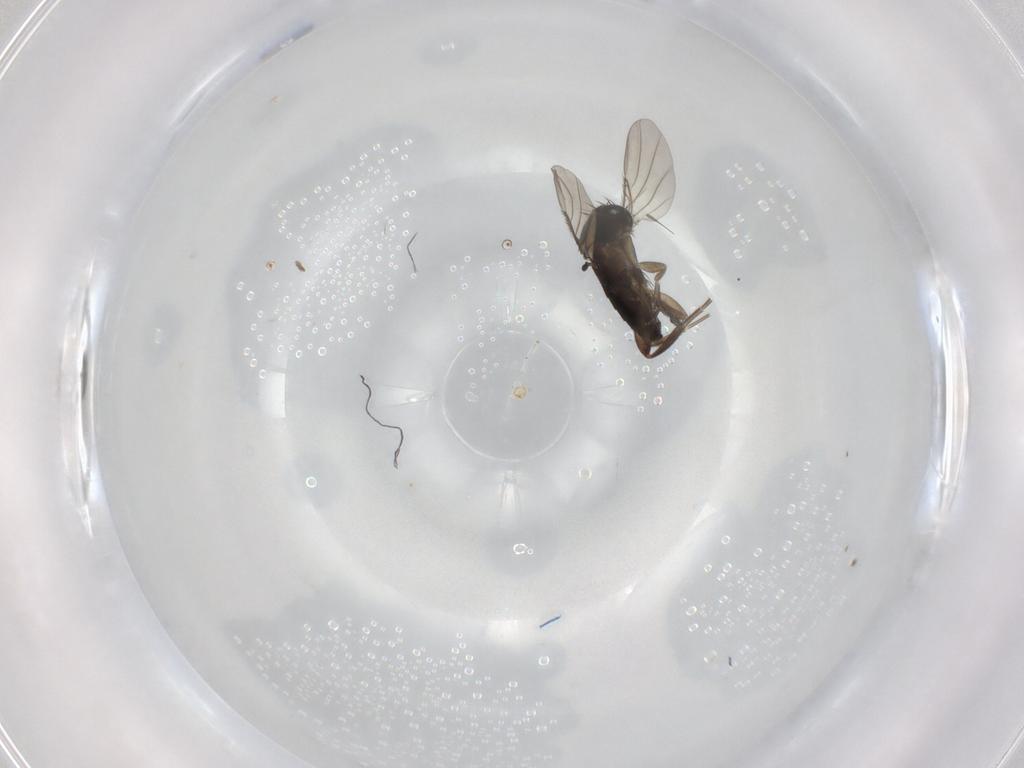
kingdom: Animalia
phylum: Arthropoda
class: Insecta
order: Diptera
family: Phoridae
